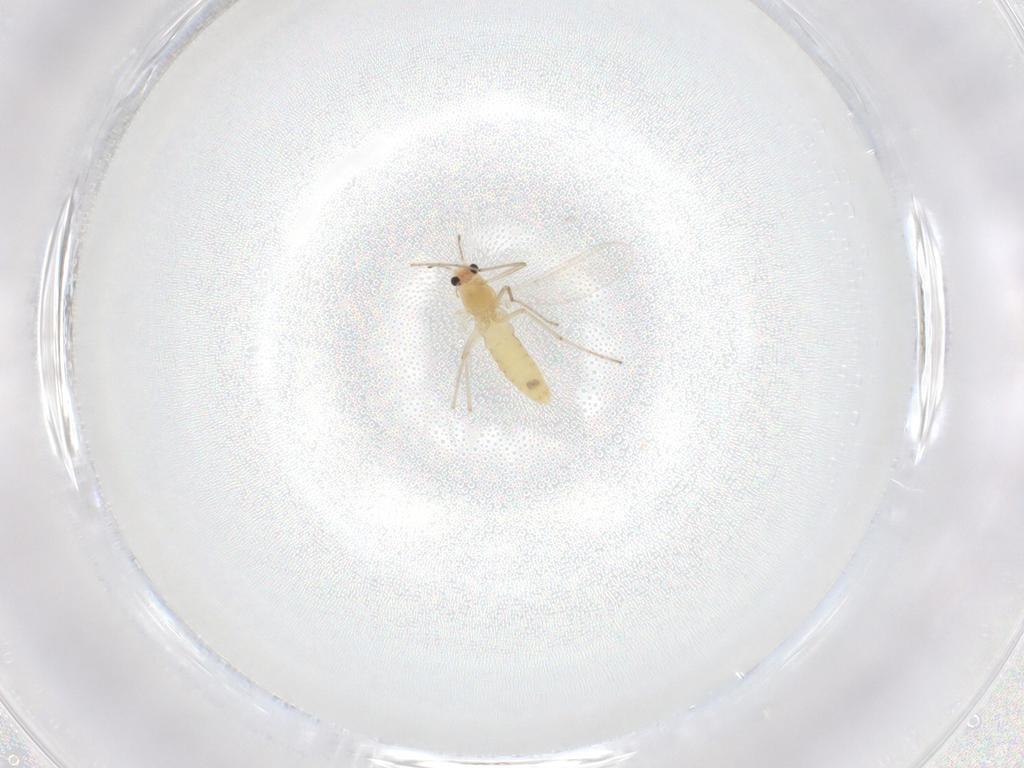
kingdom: Animalia
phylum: Arthropoda
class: Insecta
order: Diptera
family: Chironomidae
